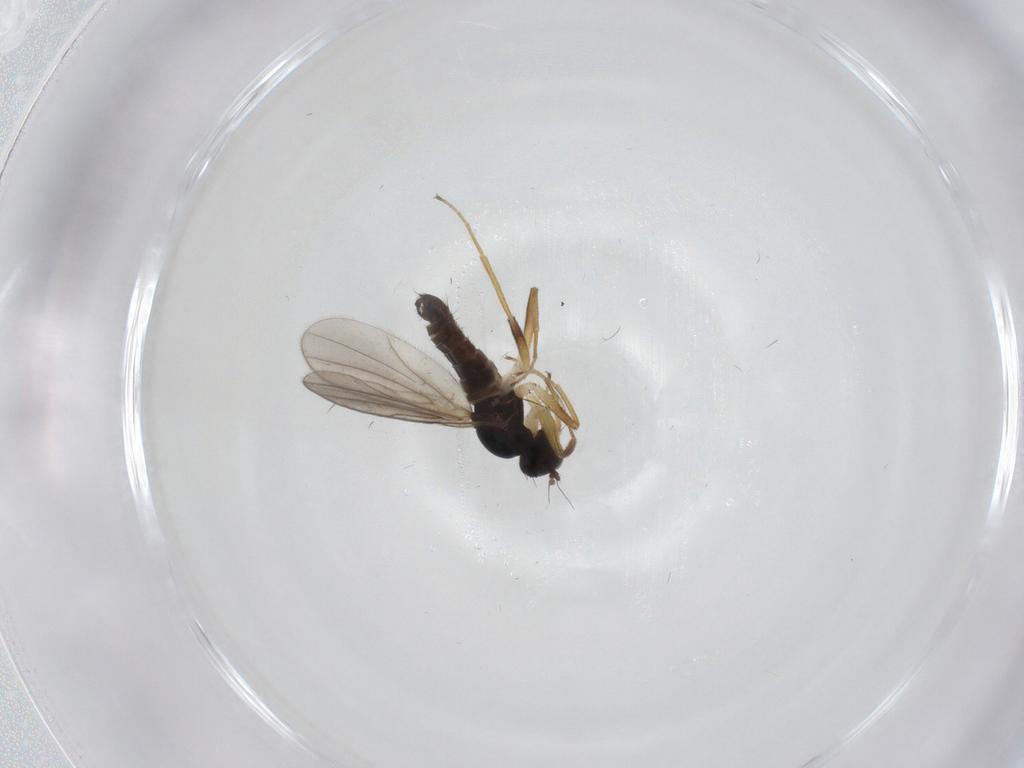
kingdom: Animalia
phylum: Arthropoda
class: Insecta
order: Diptera
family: Hybotidae
